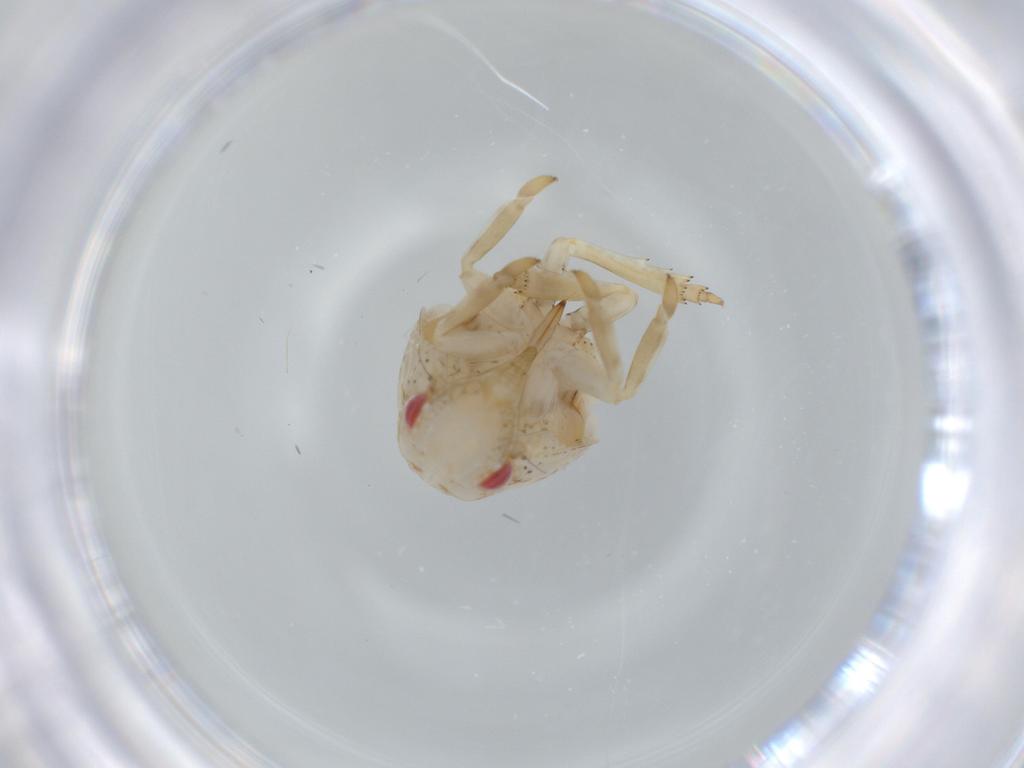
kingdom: Animalia
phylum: Arthropoda
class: Insecta
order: Hemiptera
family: Acanaloniidae
